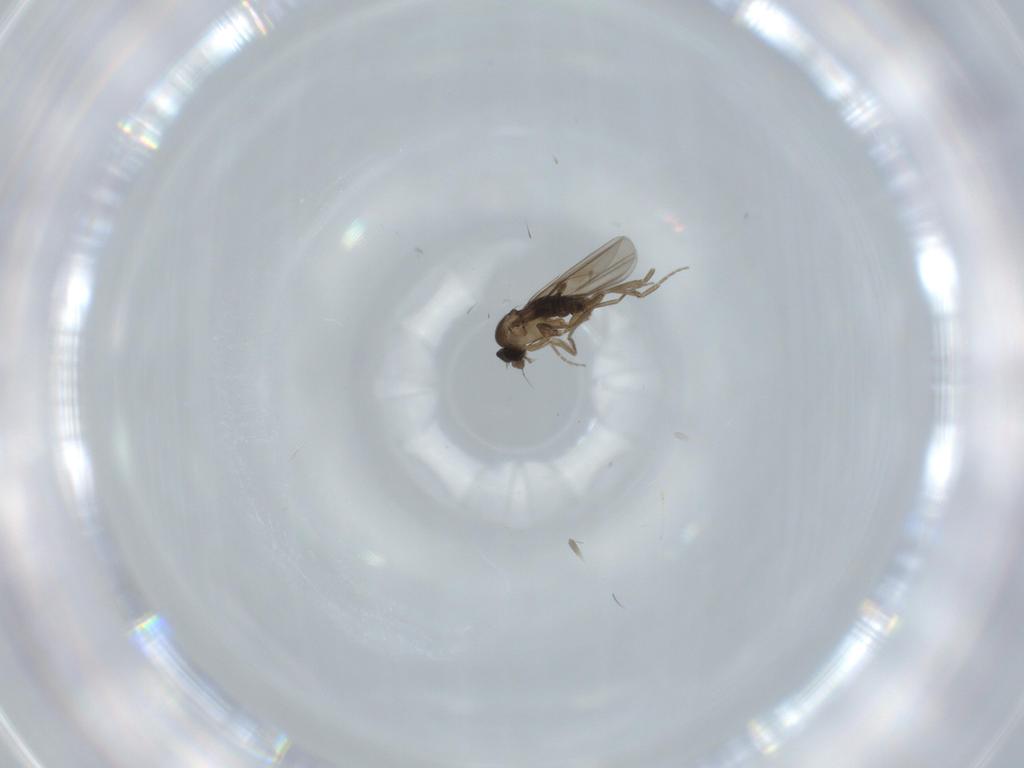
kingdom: Animalia
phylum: Arthropoda
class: Insecta
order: Diptera
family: Phoridae
